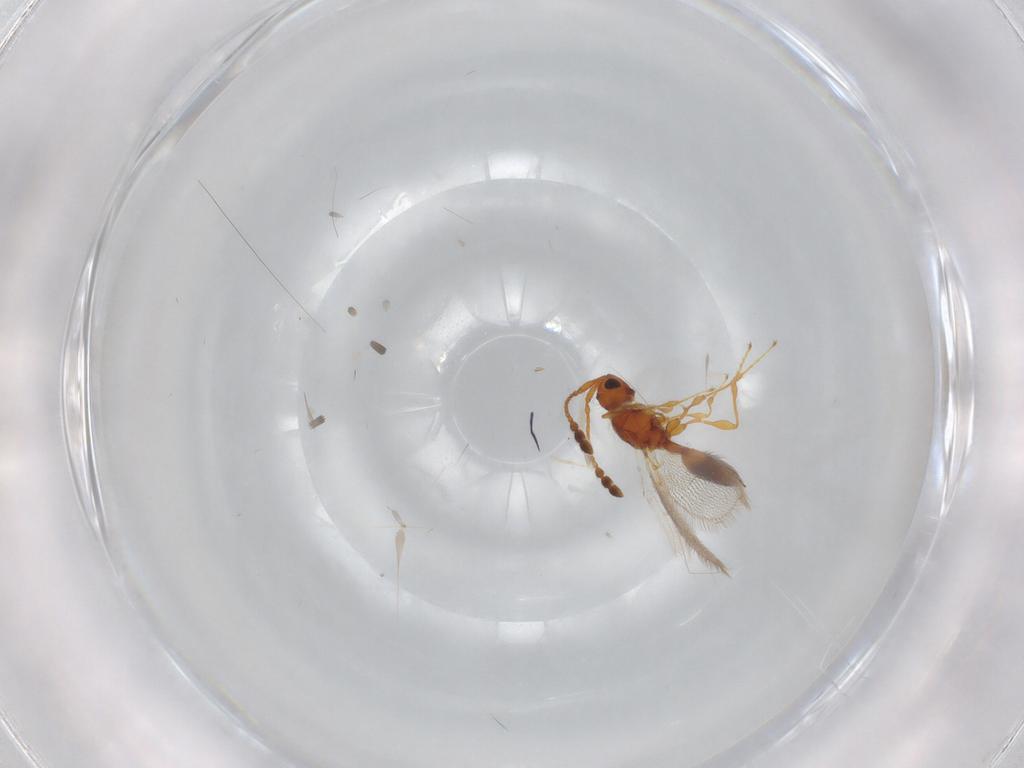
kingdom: Animalia
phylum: Arthropoda
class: Insecta
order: Hymenoptera
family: Diapriidae
